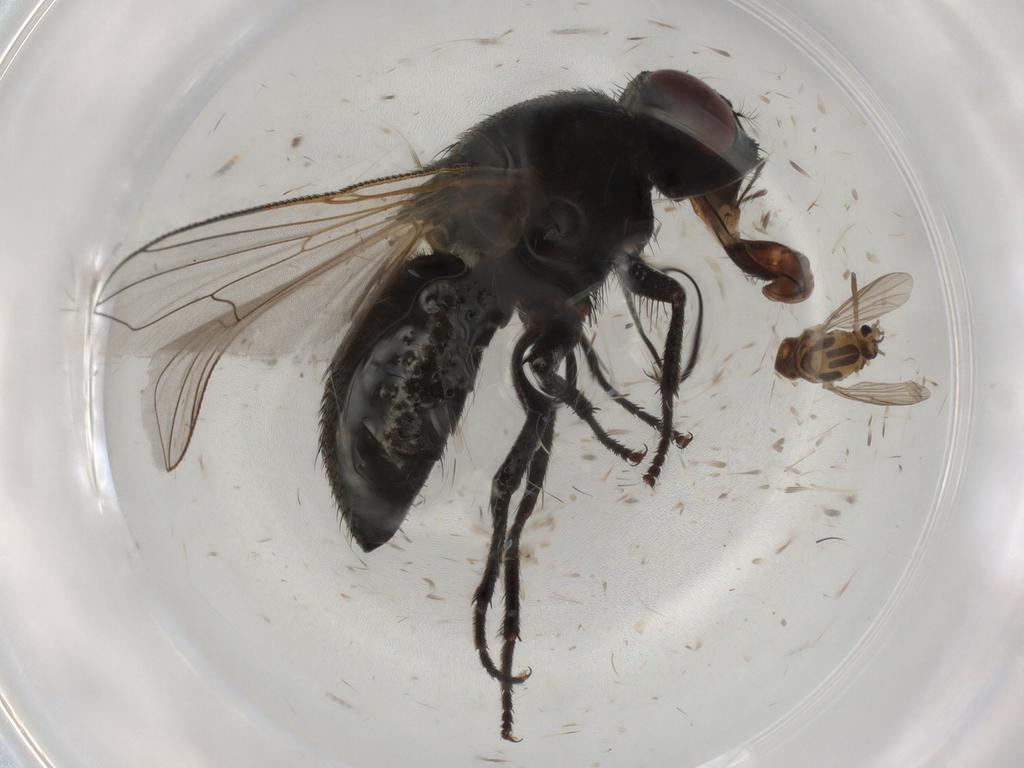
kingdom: Animalia
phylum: Arthropoda
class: Insecta
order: Diptera
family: Muscidae
